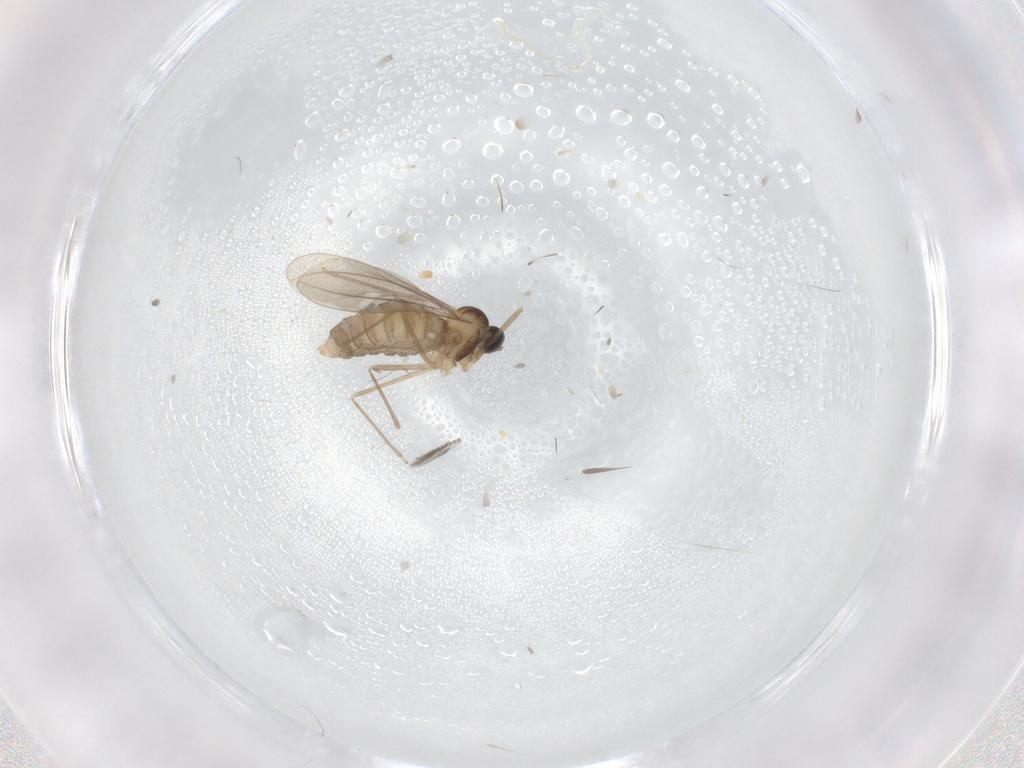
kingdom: Animalia
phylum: Arthropoda
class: Insecta
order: Diptera
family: Cecidomyiidae
